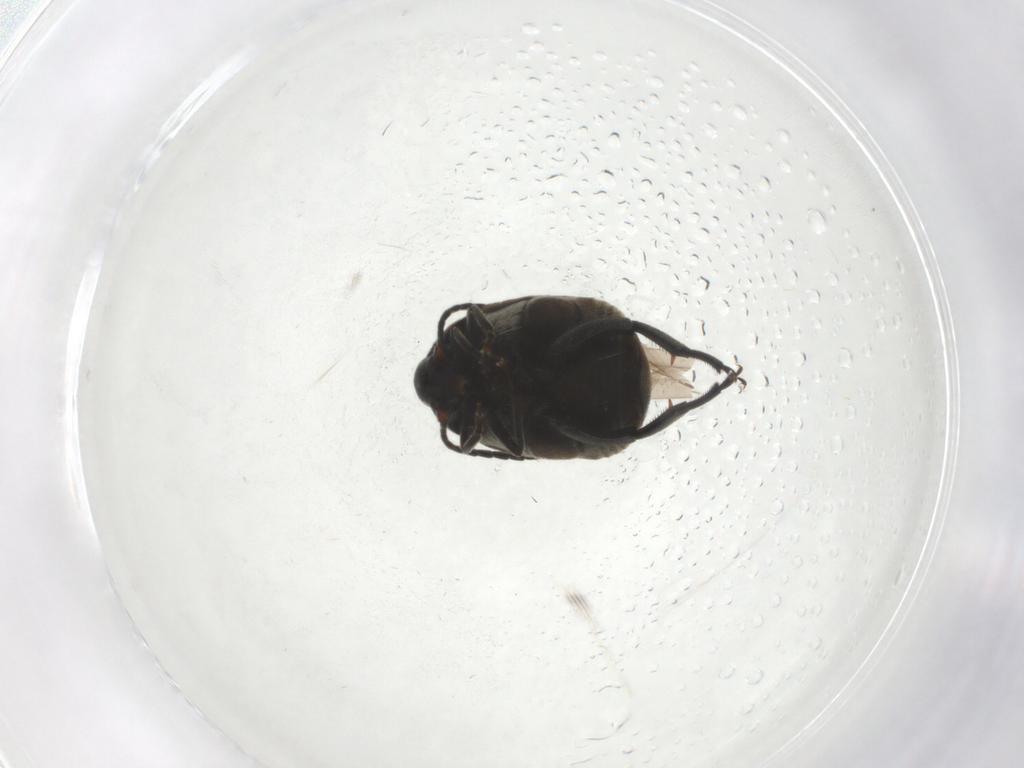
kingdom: Animalia
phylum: Arthropoda
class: Insecta
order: Coleoptera
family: Chrysomelidae
